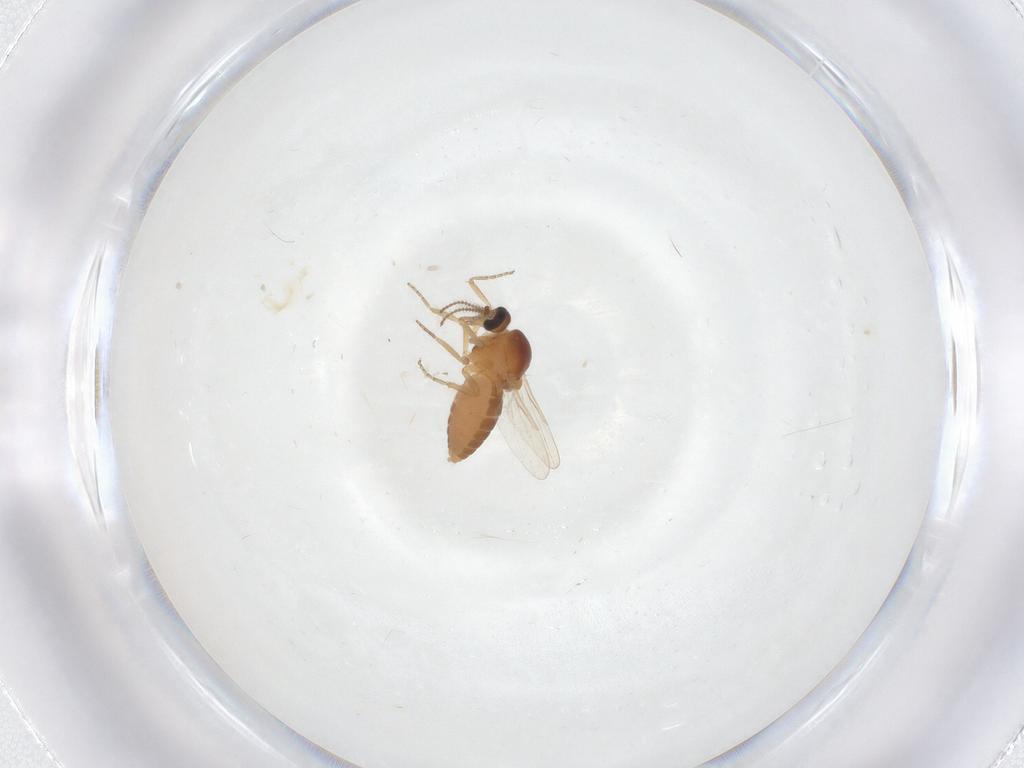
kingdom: Animalia
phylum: Arthropoda
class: Insecta
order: Diptera
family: Ceratopogonidae
